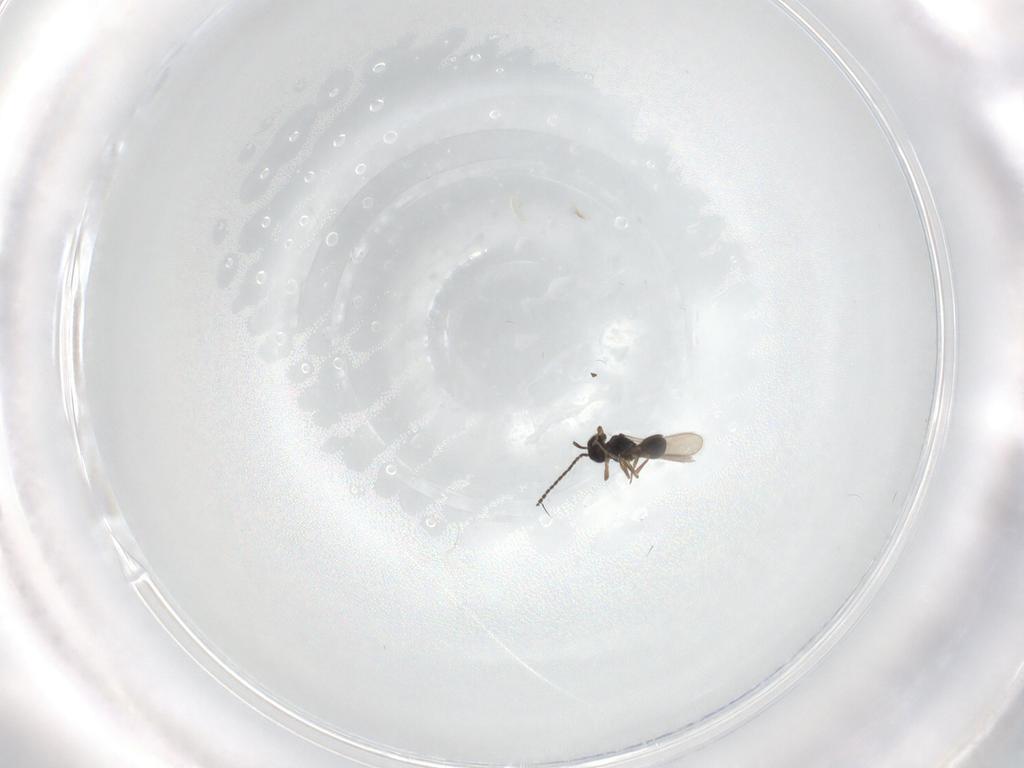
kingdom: Animalia
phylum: Arthropoda
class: Insecta
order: Hymenoptera
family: Scelionidae
